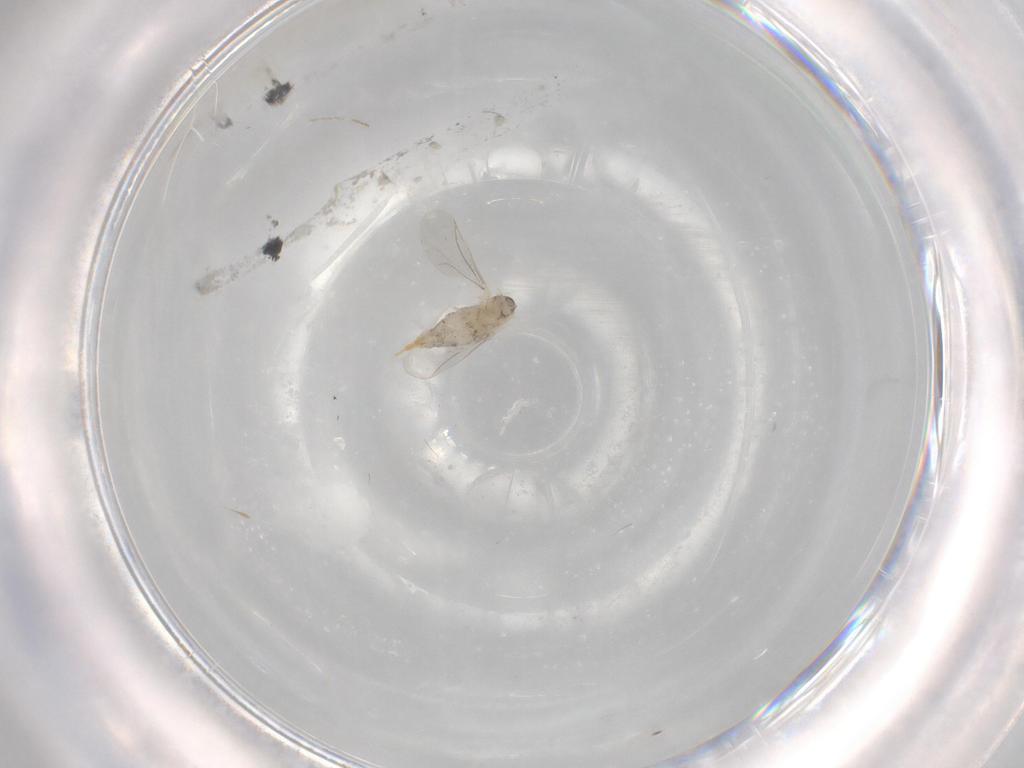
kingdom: Animalia
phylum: Arthropoda
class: Insecta
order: Diptera
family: Cecidomyiidae
